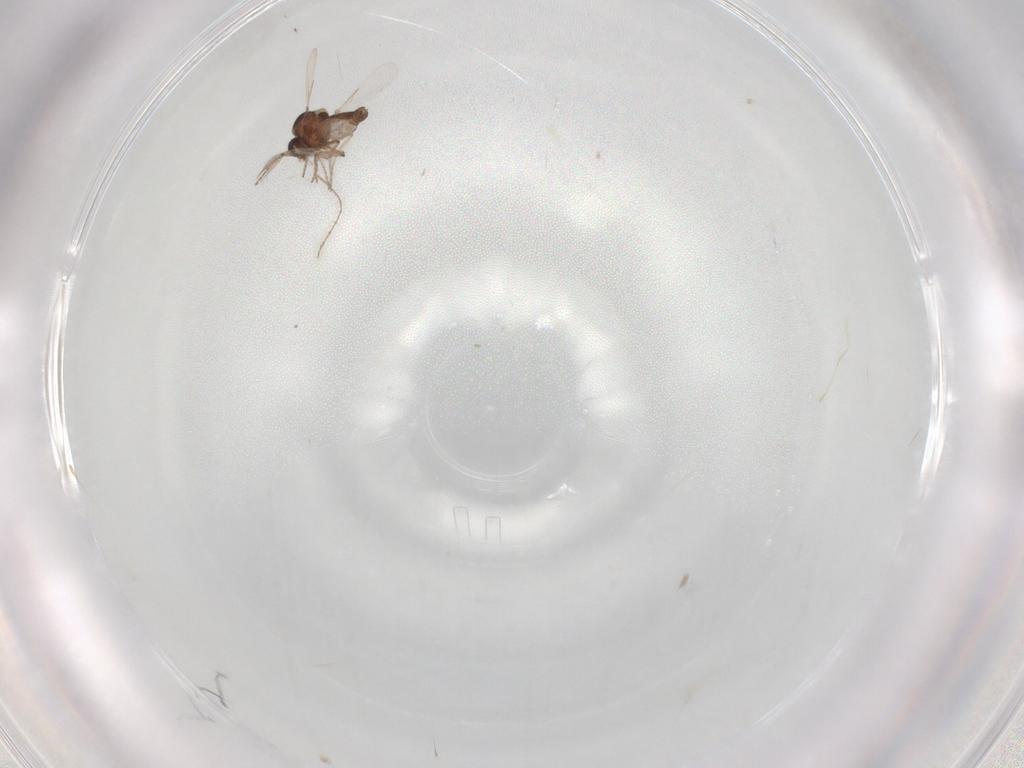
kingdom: Animalia
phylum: Arthropoda
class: Insecta
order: Diptera
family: Cecidomyiidae
